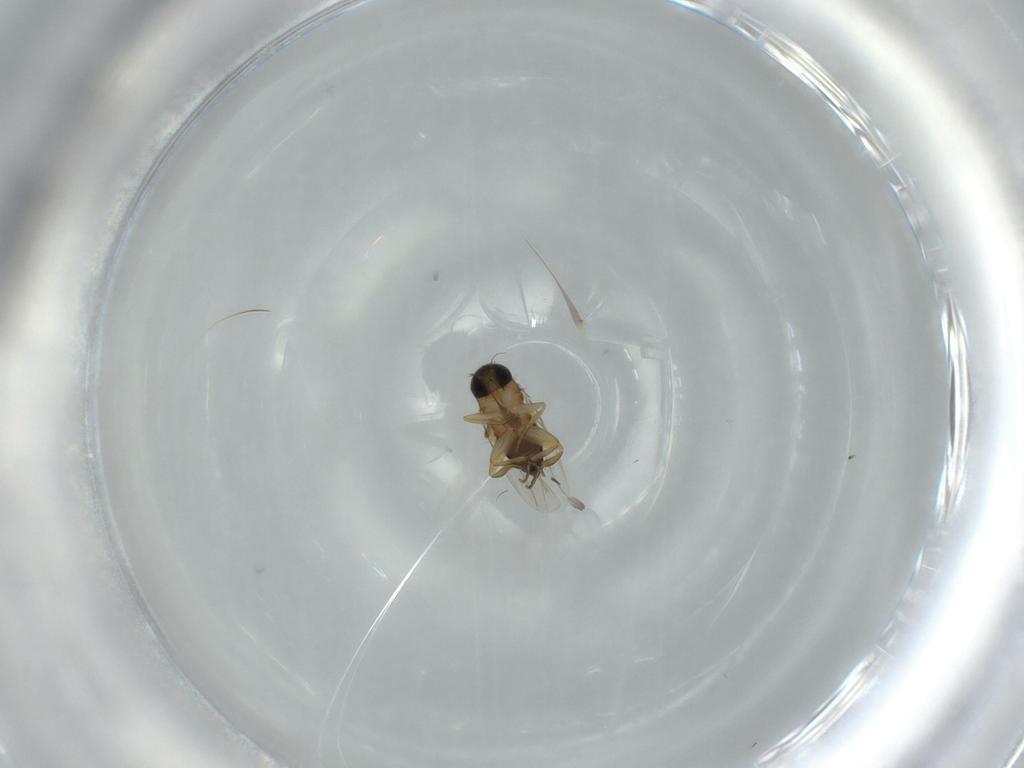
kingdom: Animalia
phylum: Arthropoda
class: Insecta
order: Diptera
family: Phoridae
